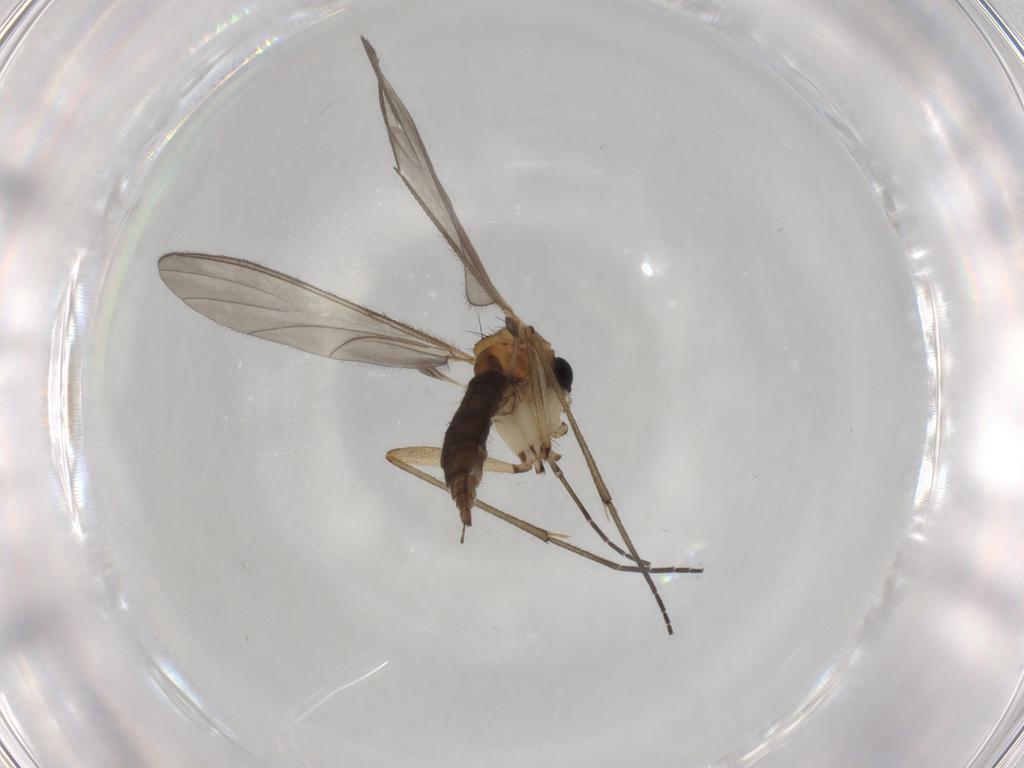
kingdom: Animalia
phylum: Arthropoda
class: Insecta
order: Diptera
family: Sciaridae
